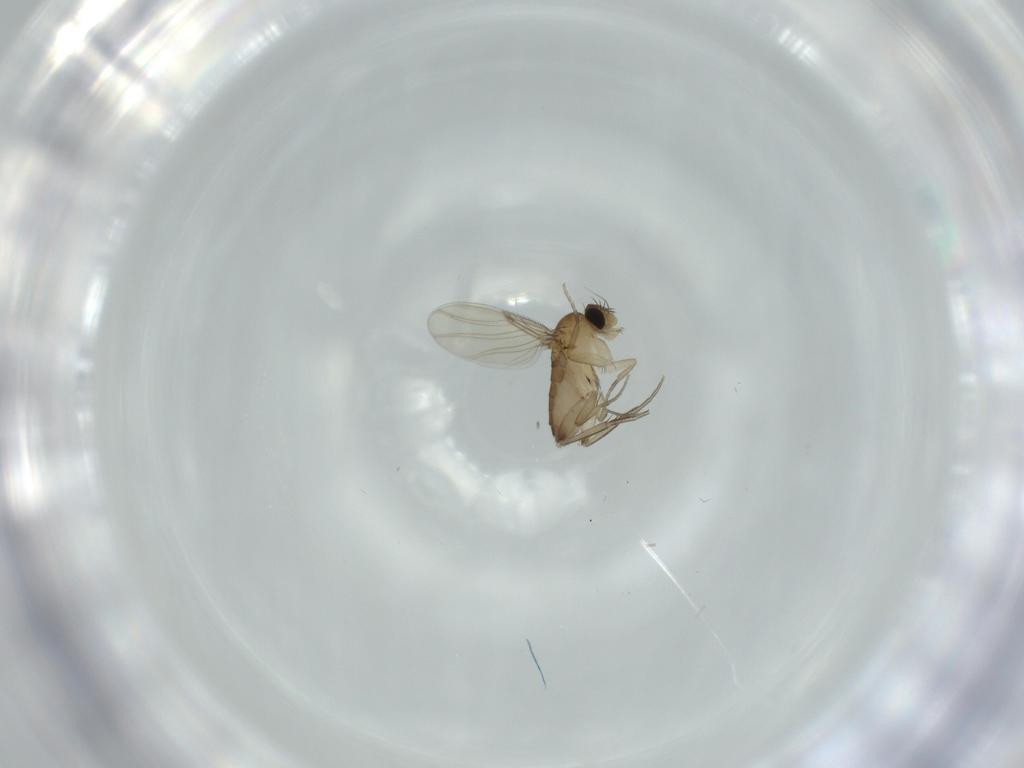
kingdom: Animalia
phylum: Arthropoda
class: Insecta
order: Diptera
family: Phoridae
